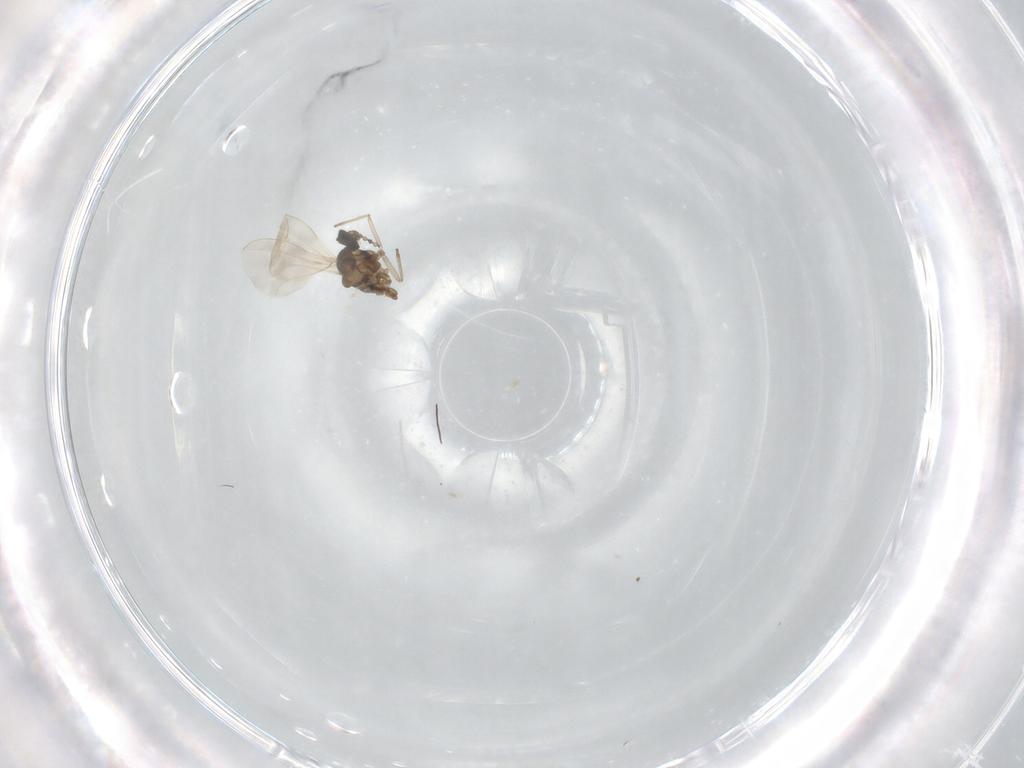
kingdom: Animalia
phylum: Arthropoda
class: Insecta
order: Diptera
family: Cecidomyiidae
